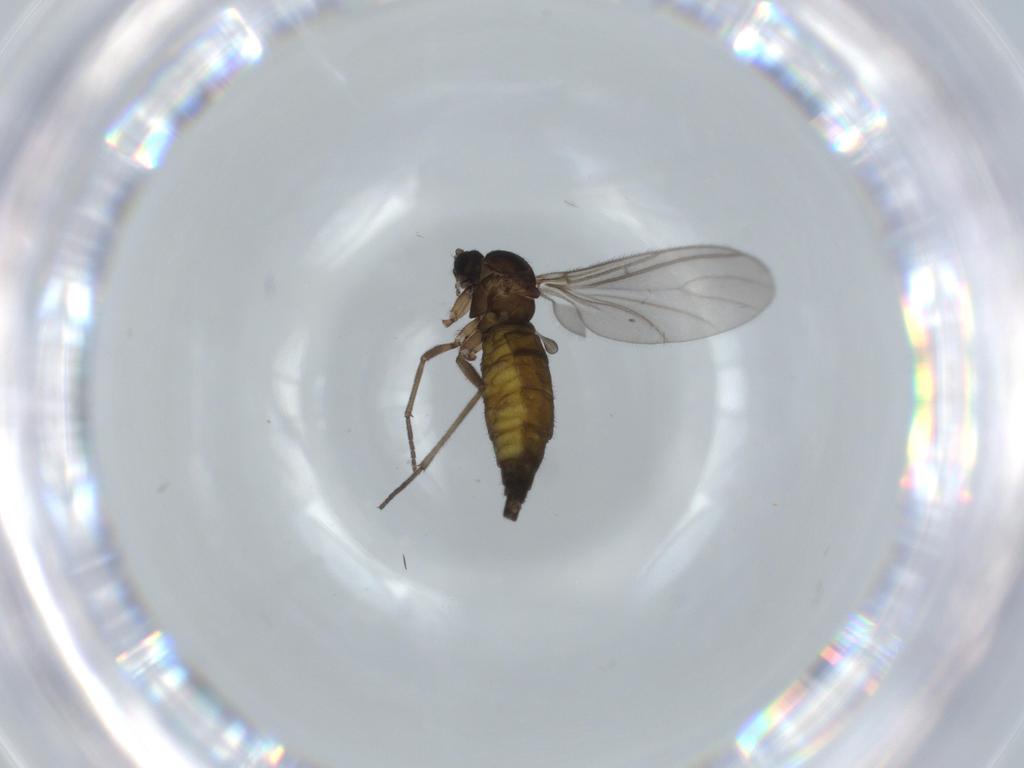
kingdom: Animalia
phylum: Arthropoda
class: Insecta
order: Diptera
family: Sciaridae
